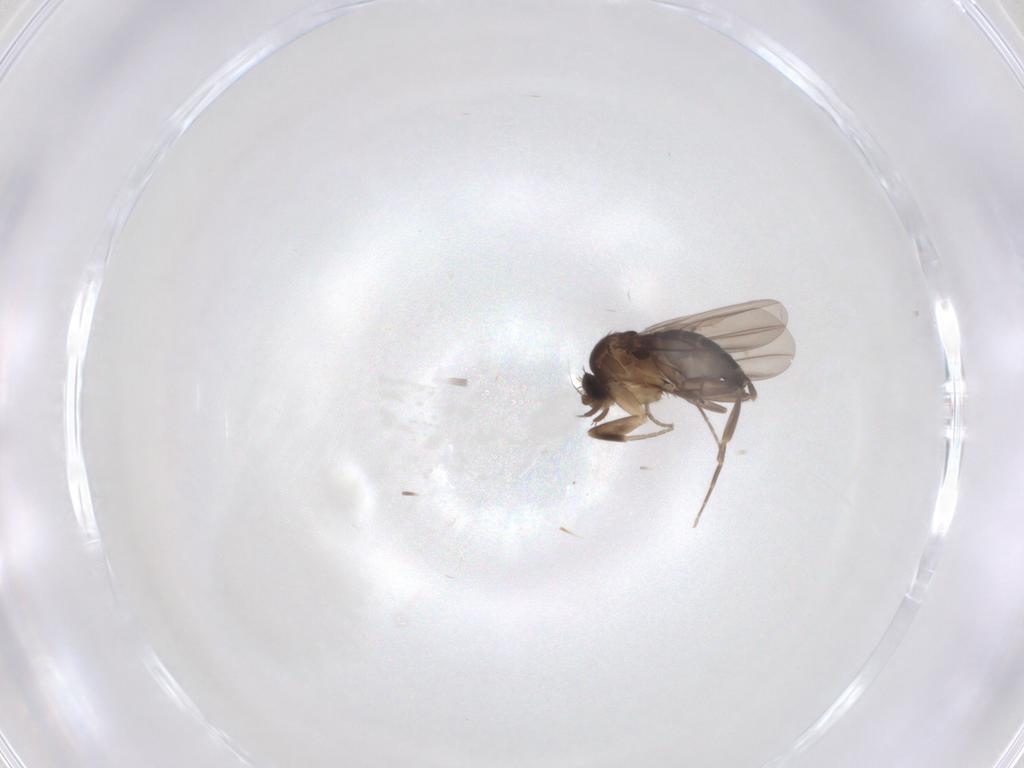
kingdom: Animalia
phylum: Arthropoda
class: Insecta
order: Diptera
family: Phoridae
